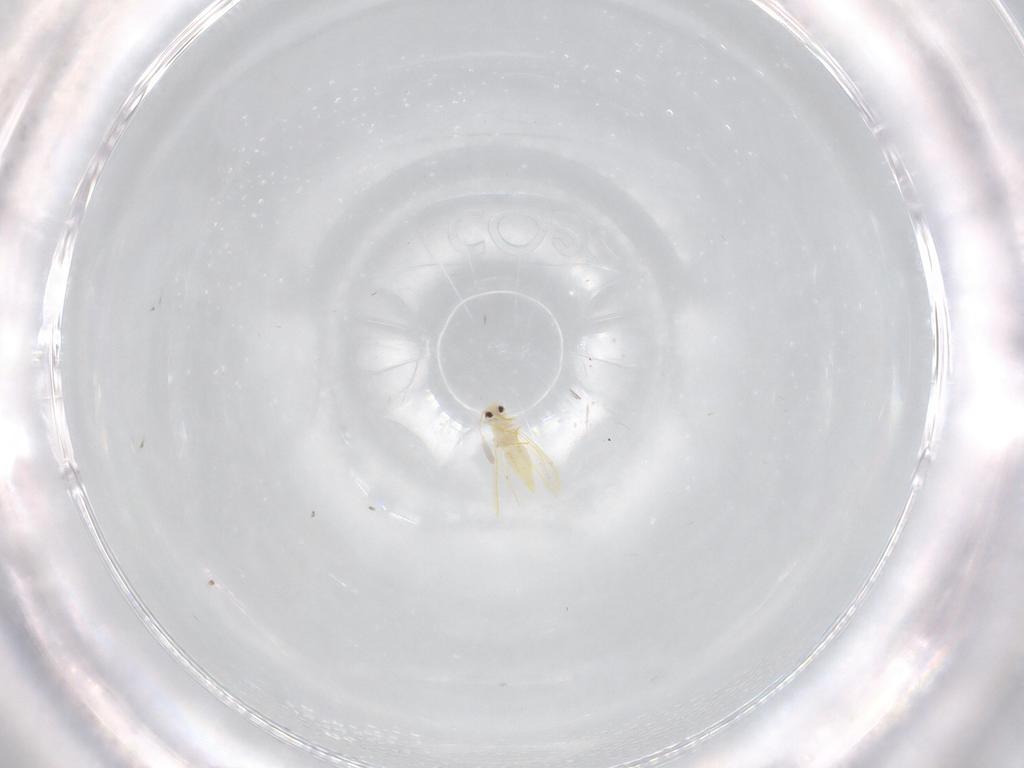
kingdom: Animalia
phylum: Arthropoda
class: Insecta
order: Hemiptera
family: Aleyrodidae
